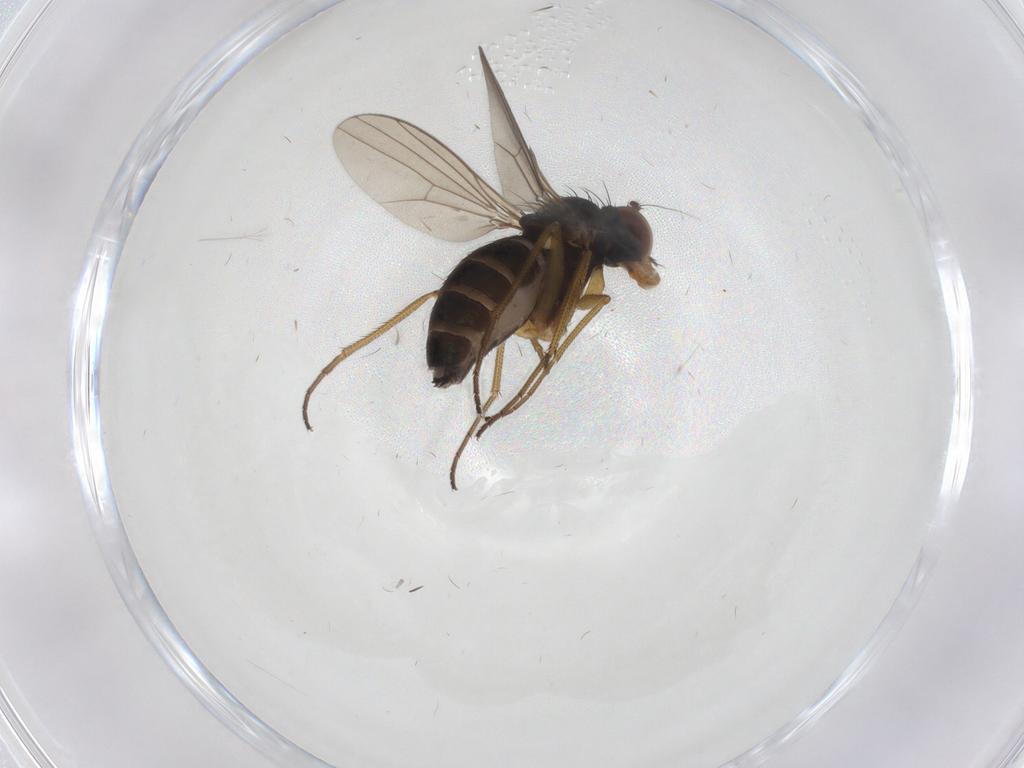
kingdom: Animalia
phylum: Arthropoda
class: Insecta
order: Diptera
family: Dolichopodidae
